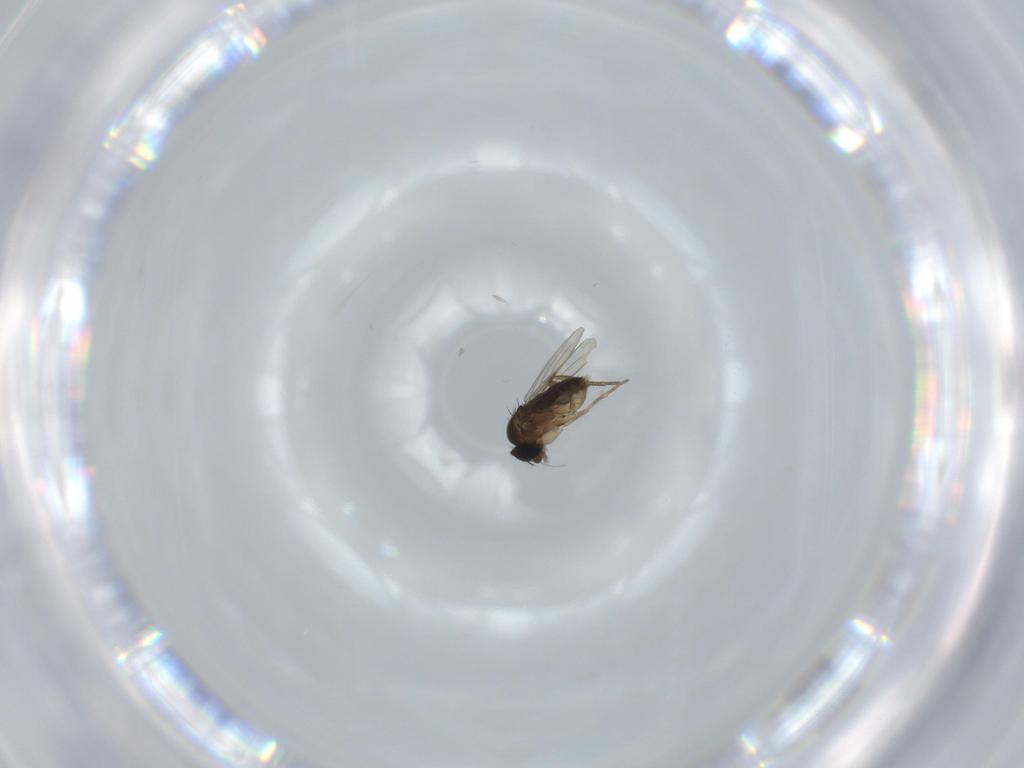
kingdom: Animalia
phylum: Arthropoda
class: Insecta
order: Diptera
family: Phoridae
